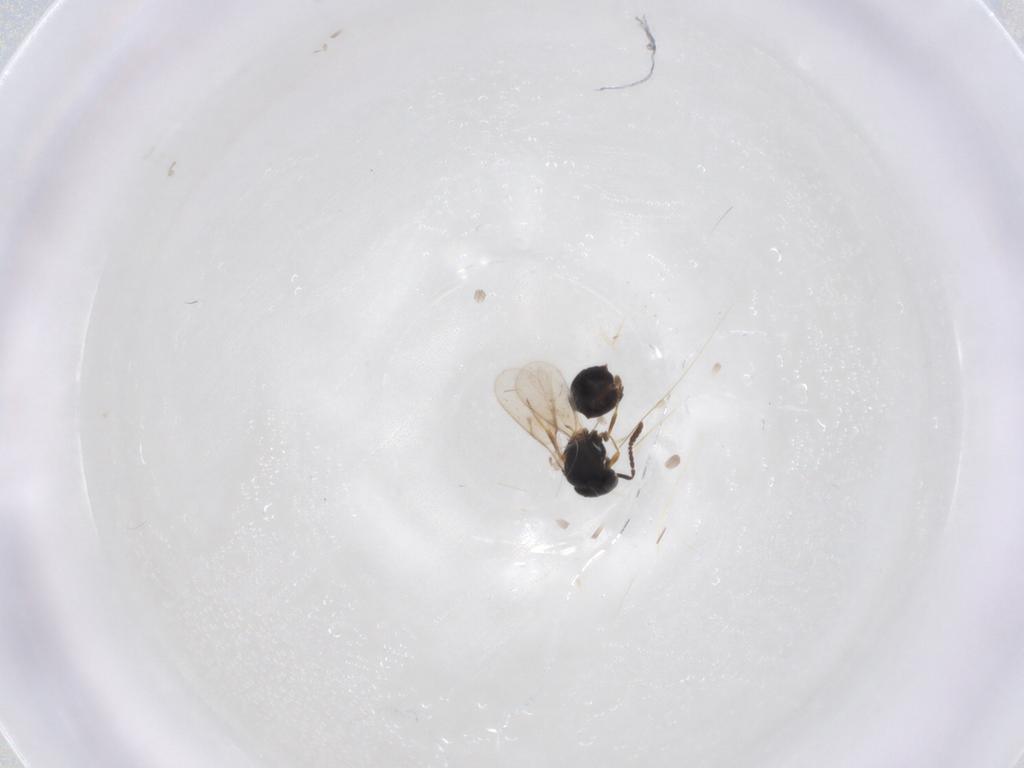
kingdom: Animalia
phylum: Arthropoda
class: Insecta
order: Hymenoptera
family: Scelionidae
